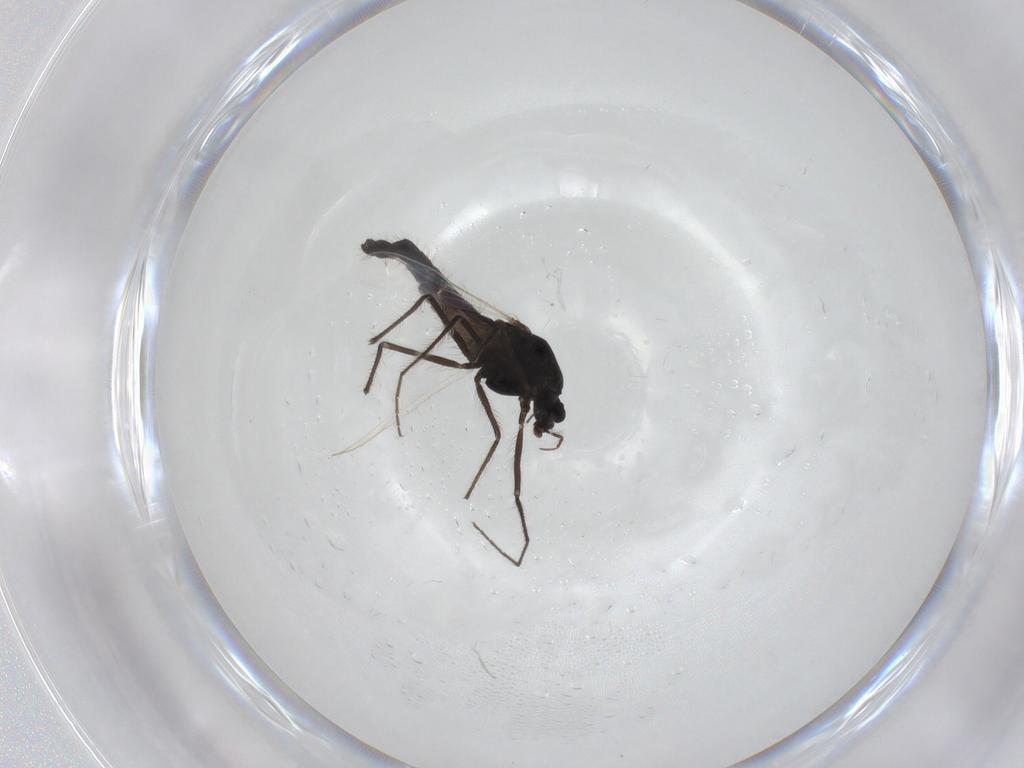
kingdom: Animalia
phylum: Arthropoda
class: Insecta
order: Diptera
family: Chironomidae
